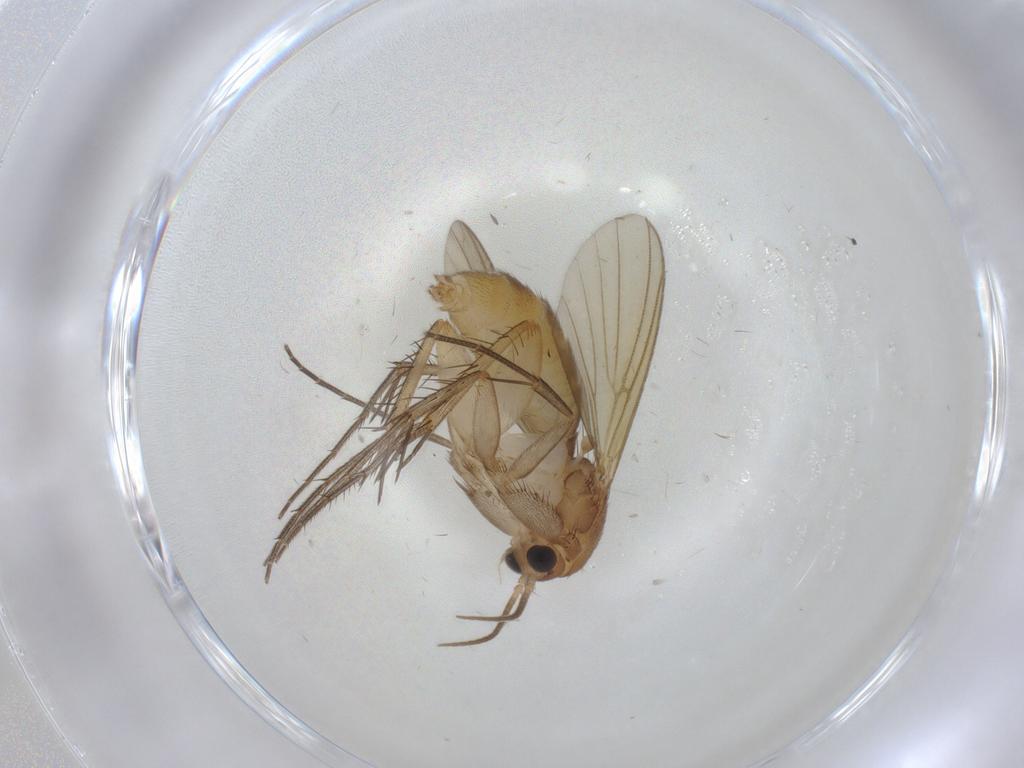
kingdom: Animalia
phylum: Arthropoda
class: Insecta
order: Diptera
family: Mycetophilidae
